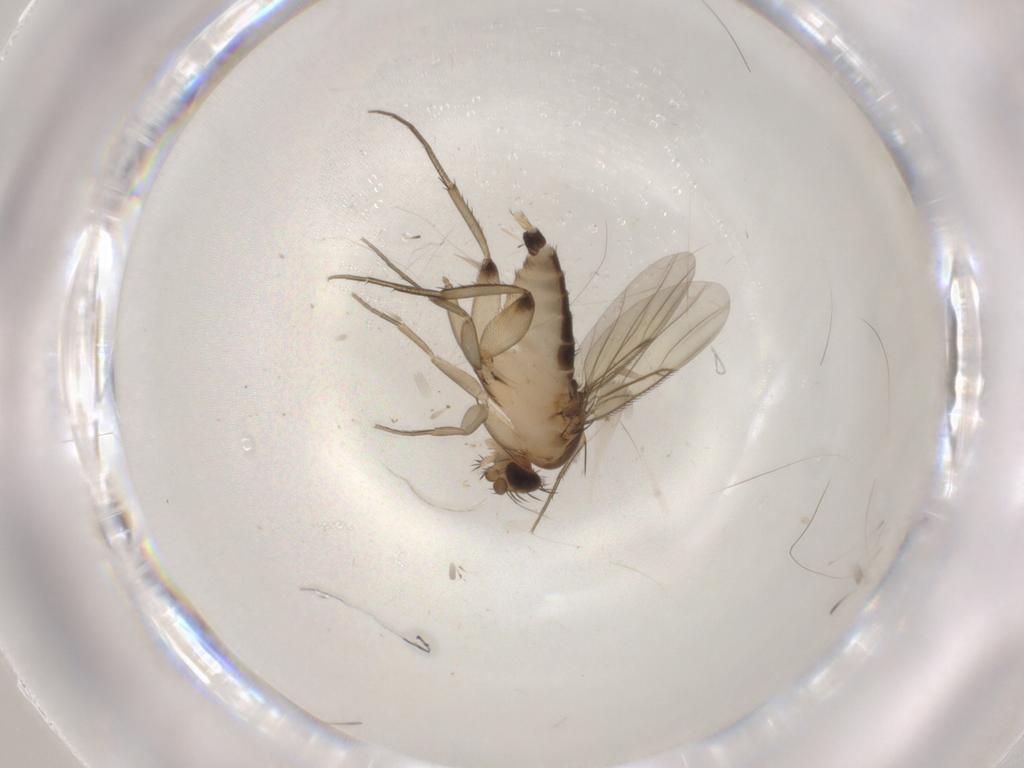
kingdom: Animalia
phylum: Arthropoda
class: Insecta
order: Diptera
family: Phoridae
